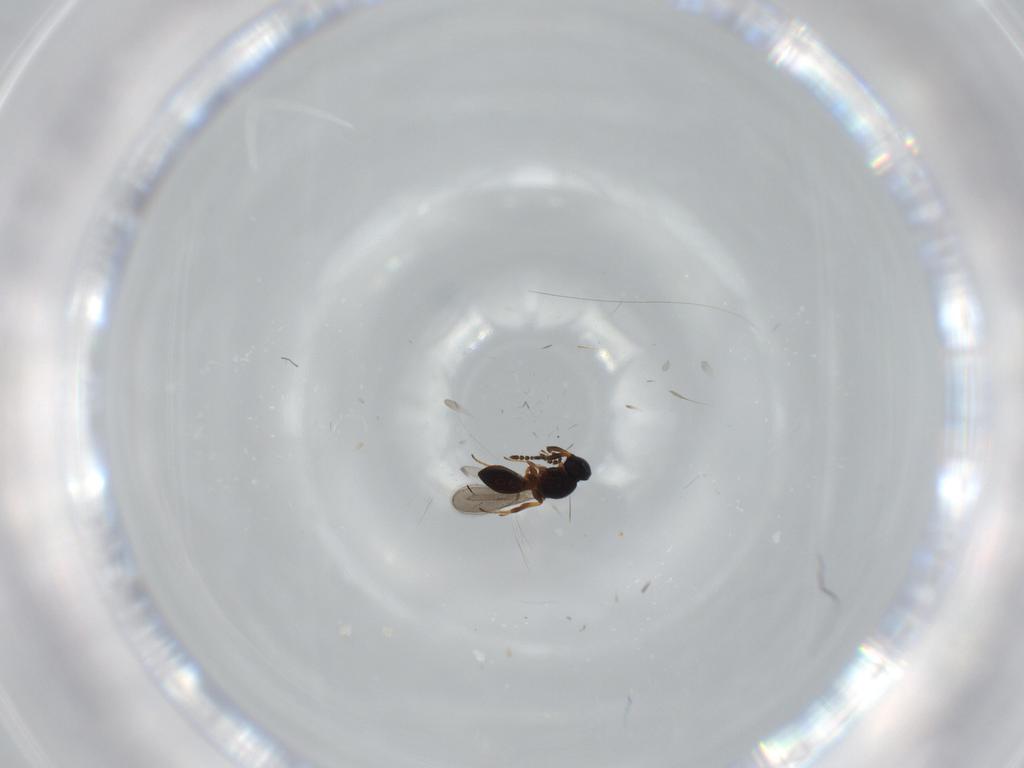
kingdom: Animalia
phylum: Arthropoda
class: Insecta
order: Hymenoptera
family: Platygastridae
